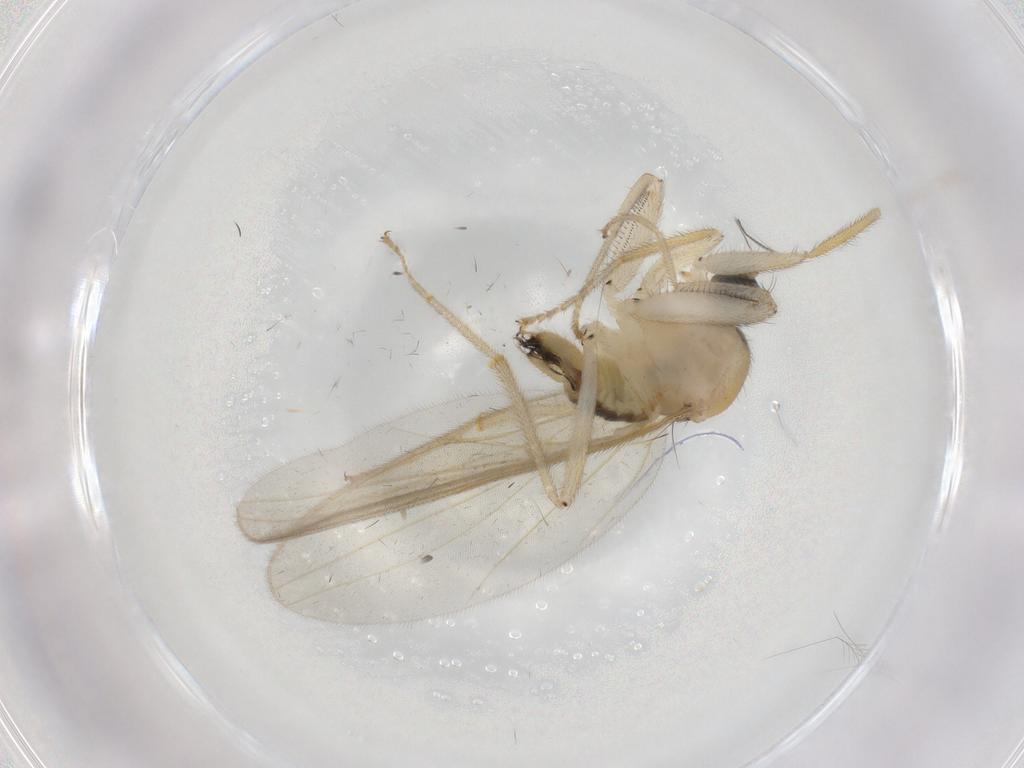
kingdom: Animalia
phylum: Arthropoda
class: Insecta
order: Diptera
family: Hybotidae
